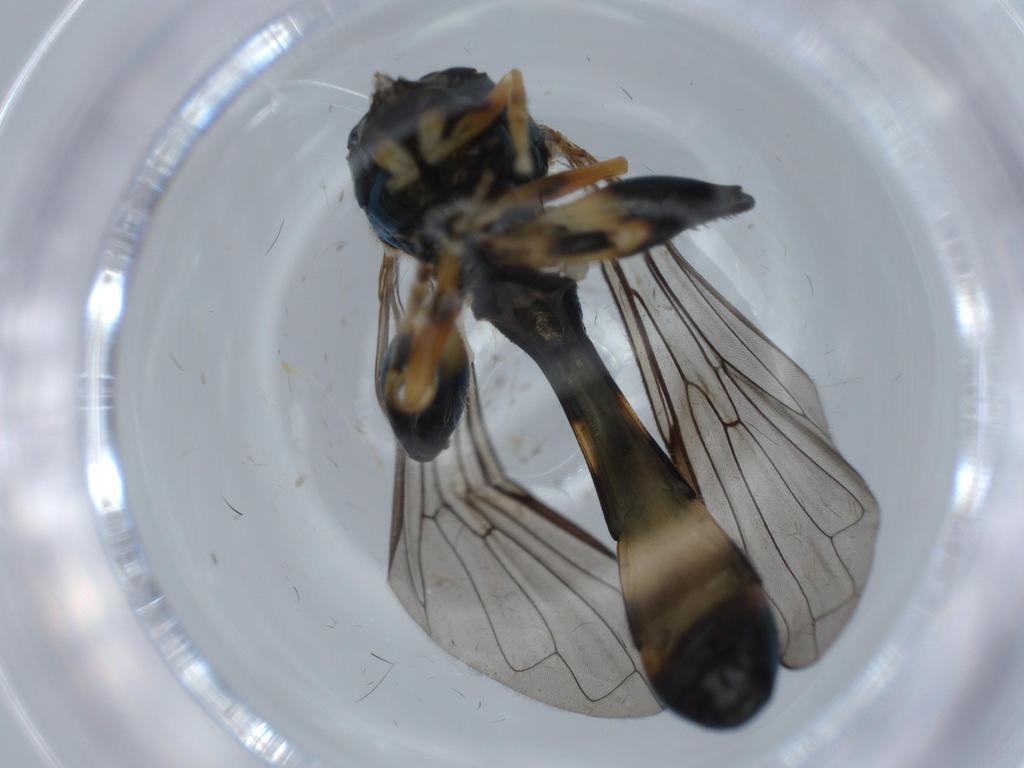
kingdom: Animalia
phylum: Arthropoda
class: Insecta
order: Diptera
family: Syrphidae
